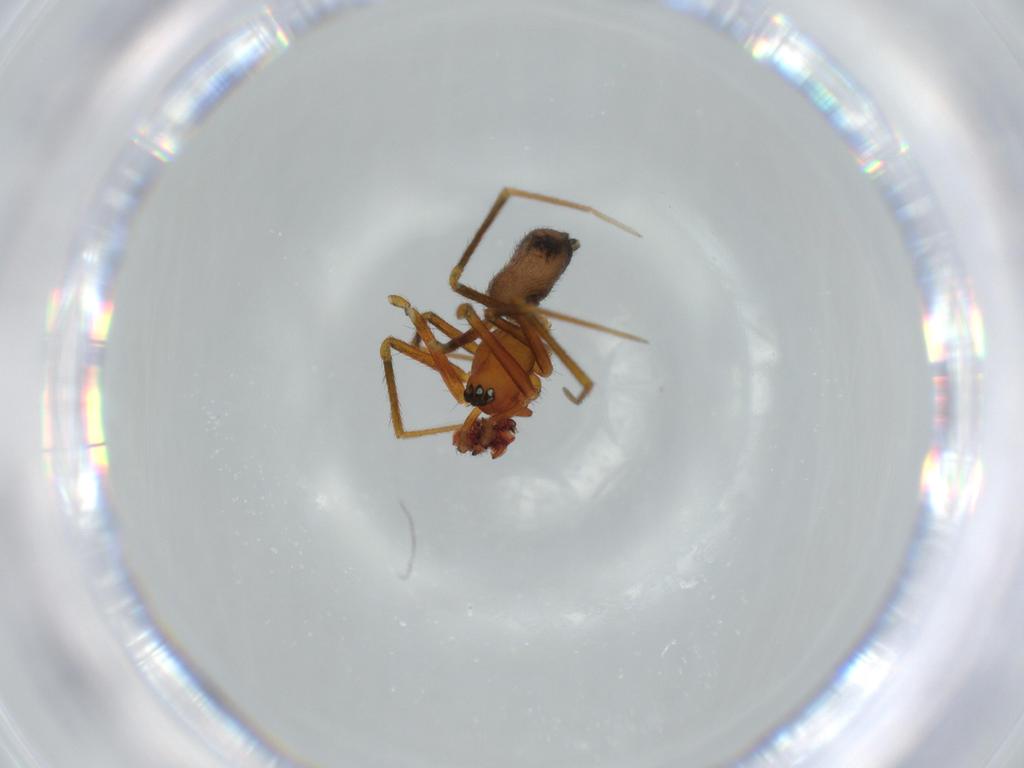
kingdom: Animalia
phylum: Arthropoda
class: Arachnida
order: Araneae
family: Linyphiidae
